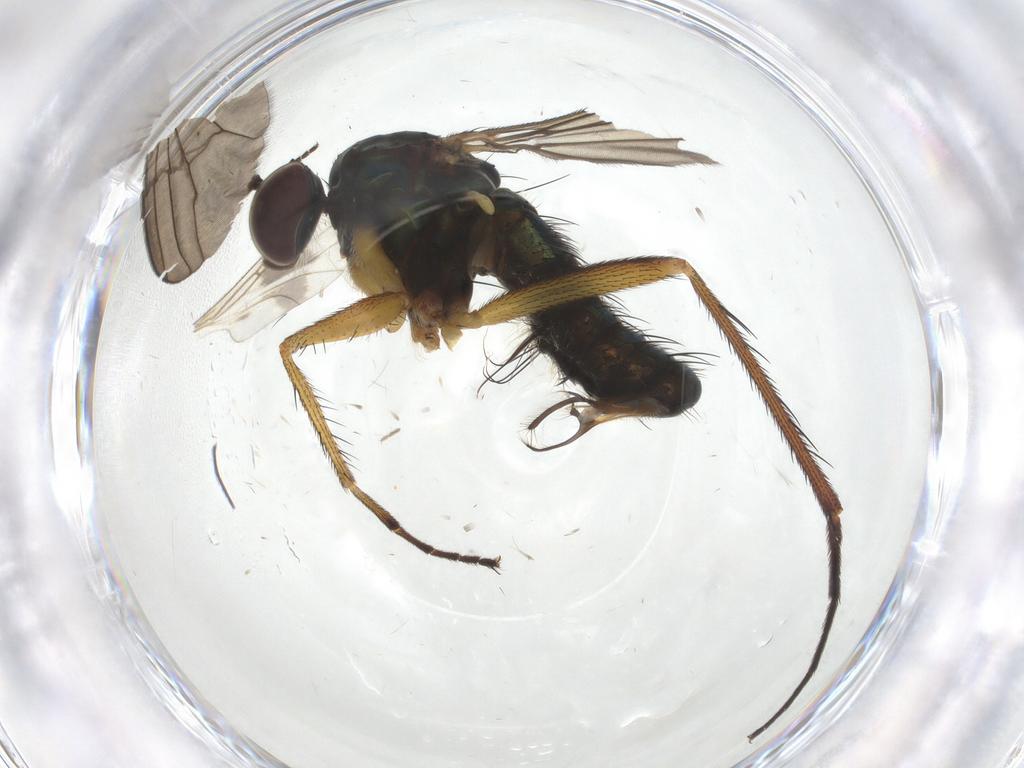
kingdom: Animalia
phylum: Arthropoda
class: Insecta
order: Diptera
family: Dolichopodidae
